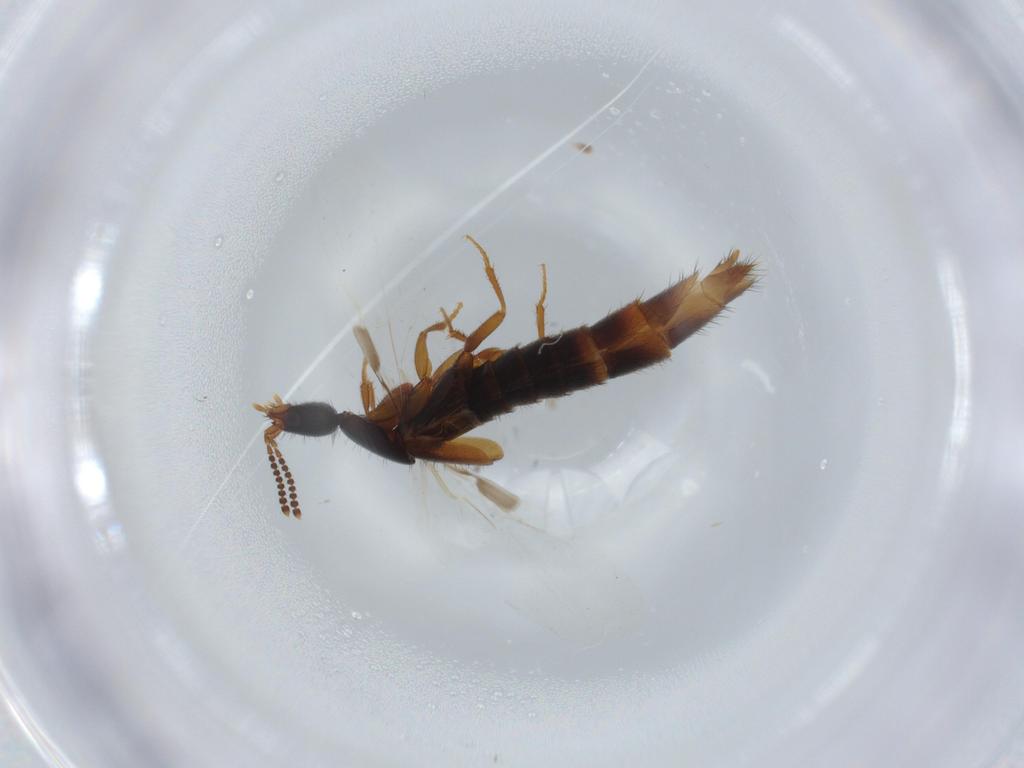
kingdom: Animalia
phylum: Arthropoda
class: Insecta
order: Coleoptera
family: Staphylinidae
